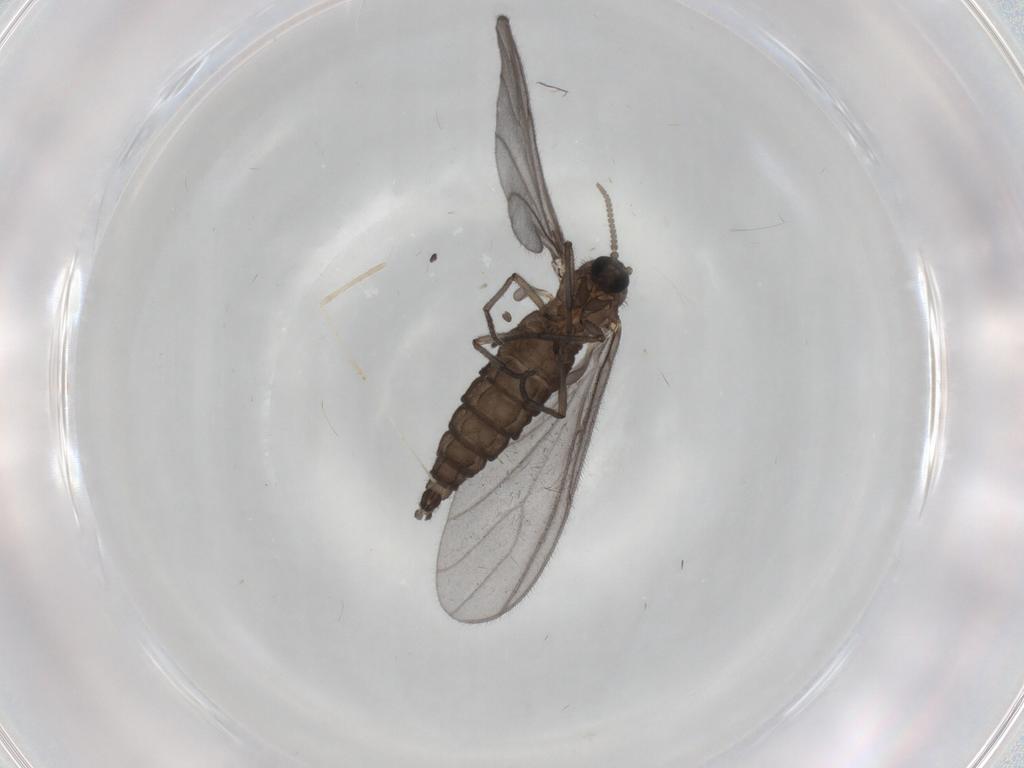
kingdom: Animalia
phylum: Arthropoda
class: Insecta
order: Diptera
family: Sciaridae
